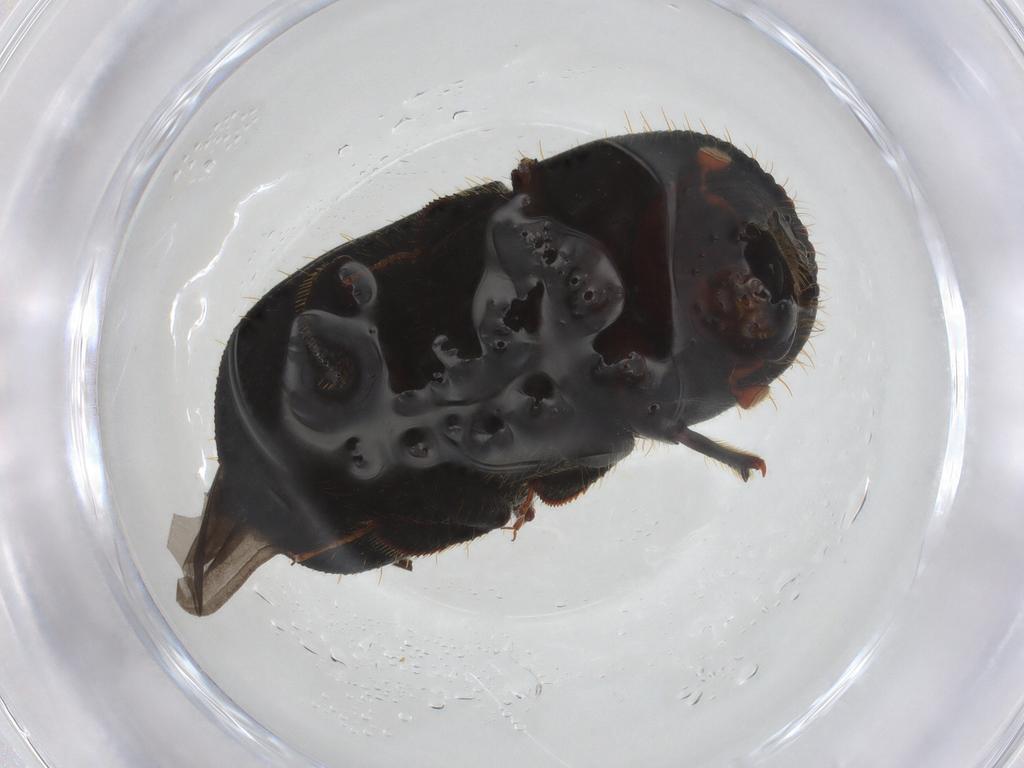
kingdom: Animalia
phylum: Arthropoda
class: Insecta
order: Coleoptera
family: Curculionidae
